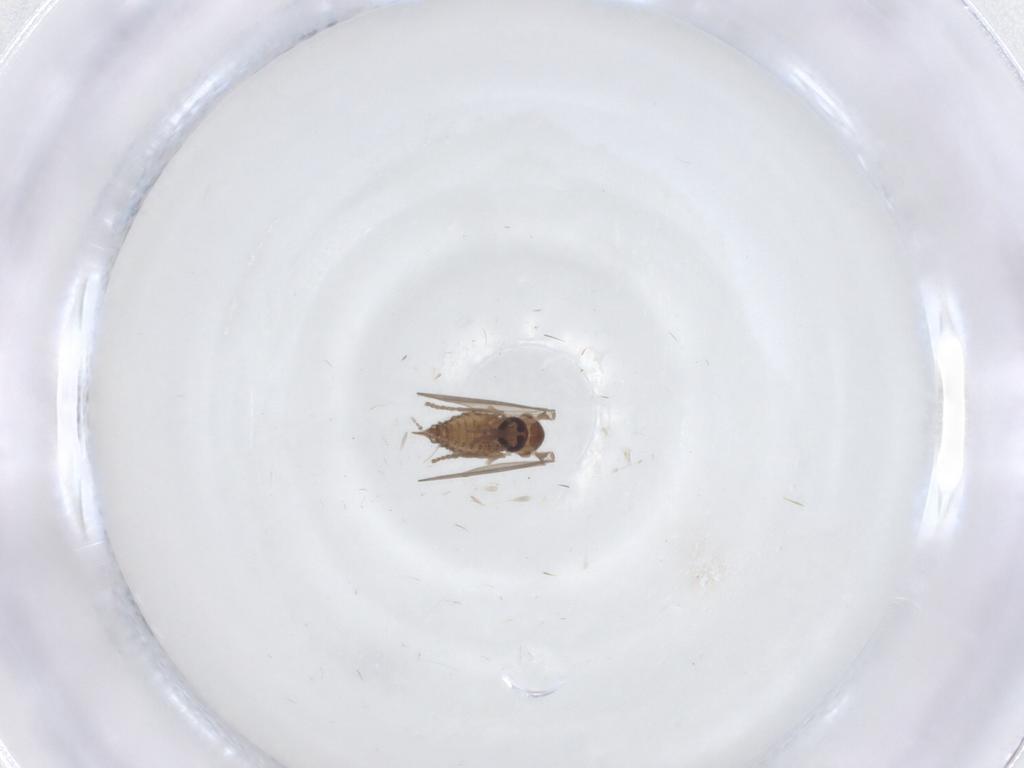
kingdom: Animalia
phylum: Arthropoda
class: Insecta
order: Diptera
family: Psychodidae
